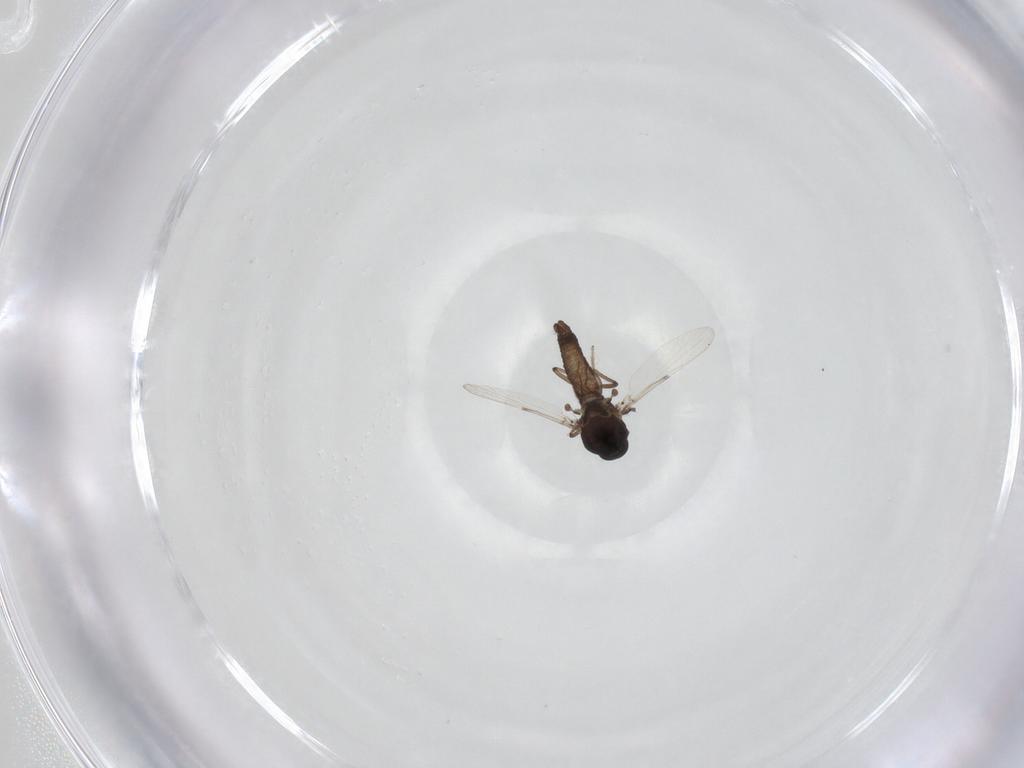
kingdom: Animalia
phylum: Arthropoda
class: Insecta
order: Diptera
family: Ceratopogonidae
